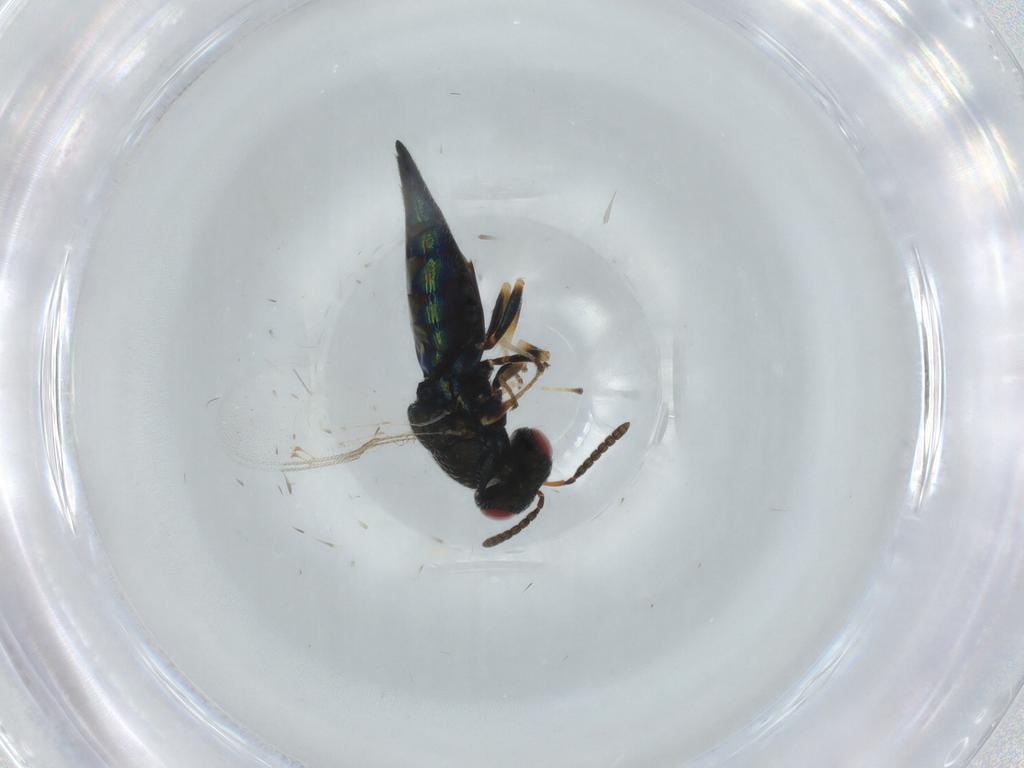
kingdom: Animalia
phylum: Arthropoda
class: Insecta
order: Hymenoptera
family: Pteromalidae
